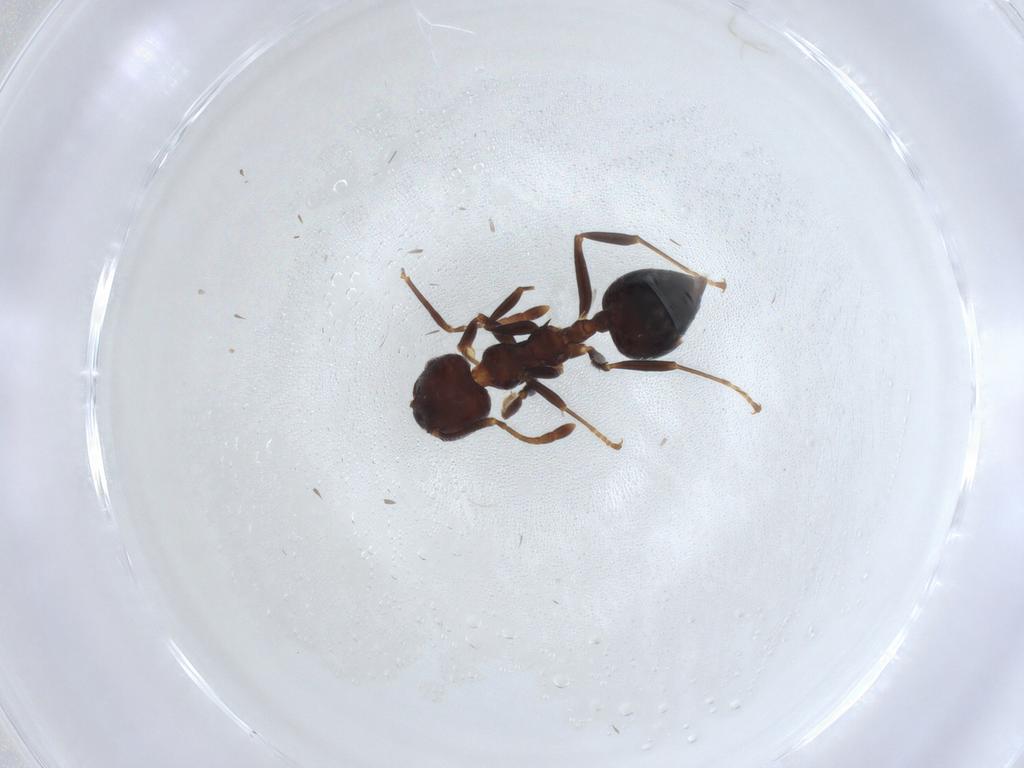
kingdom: Animalia
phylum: Arthropoda
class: Insecta
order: Hymenoptera
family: Formicidae
